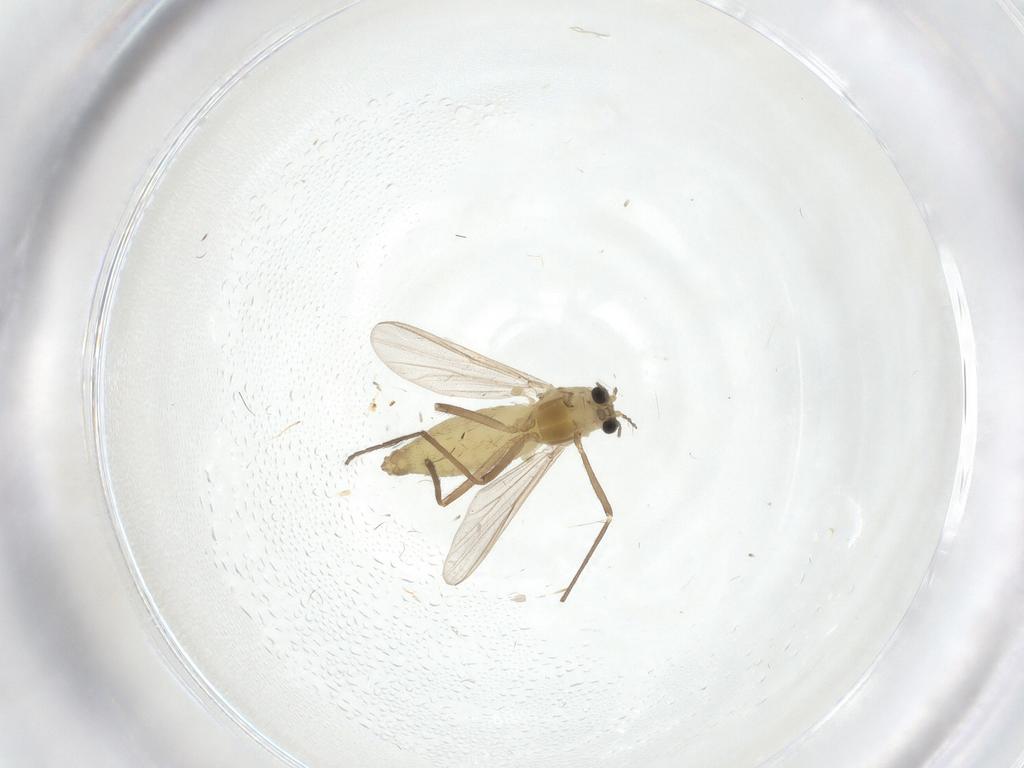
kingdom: Animalia
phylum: Arthropoda
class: Insecta
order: Diptera
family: Chironomidae
